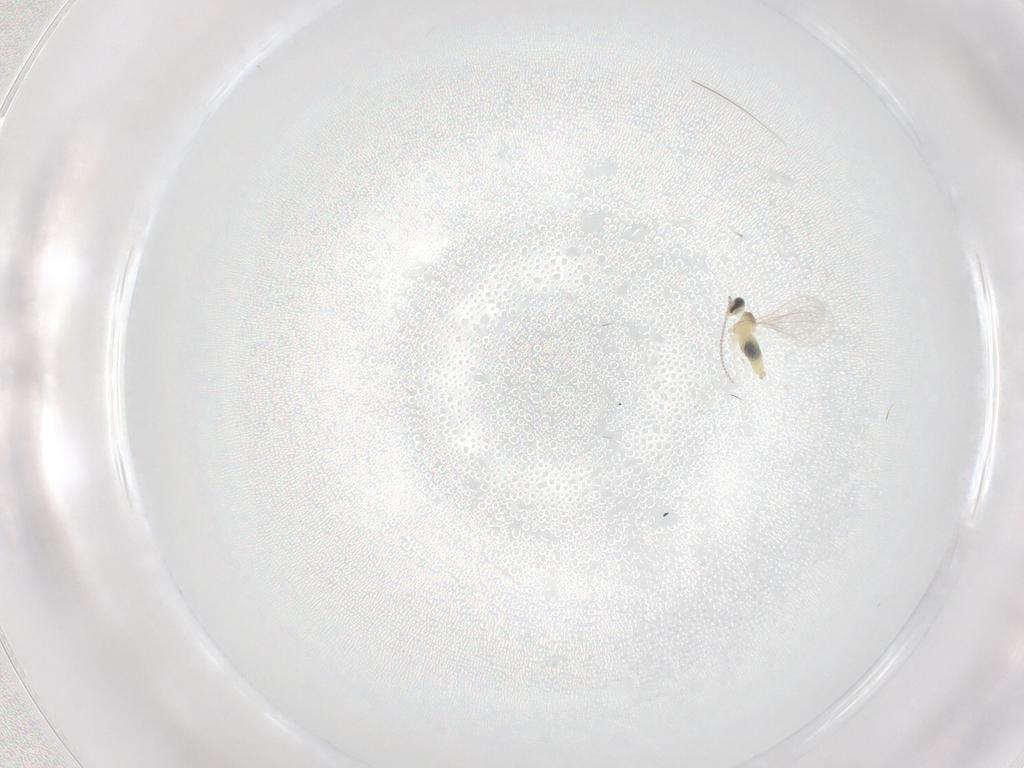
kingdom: Animalia
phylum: Arthropoda
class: Insecta
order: Diptera
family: Cecidomyiidae
